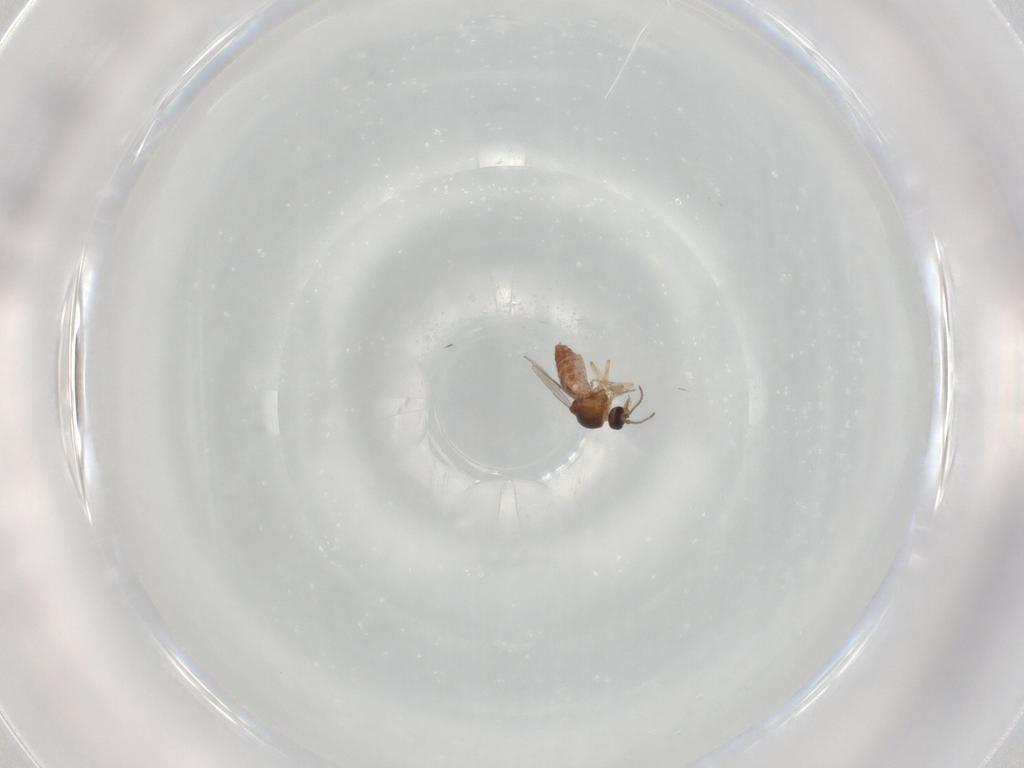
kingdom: Animalia
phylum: Arthropoda
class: Insecta
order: Diptera
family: Ceratopogonidae
